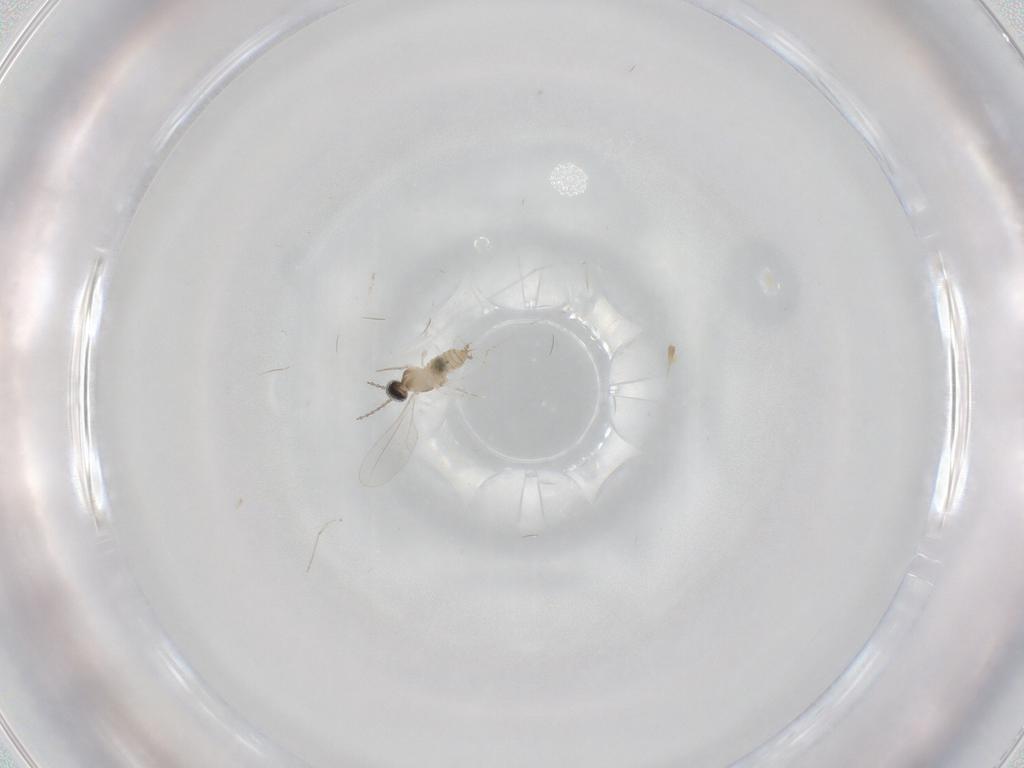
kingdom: Animalia
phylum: Arthropoda
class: Insecta
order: Diptera
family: Cecidomyiidae
